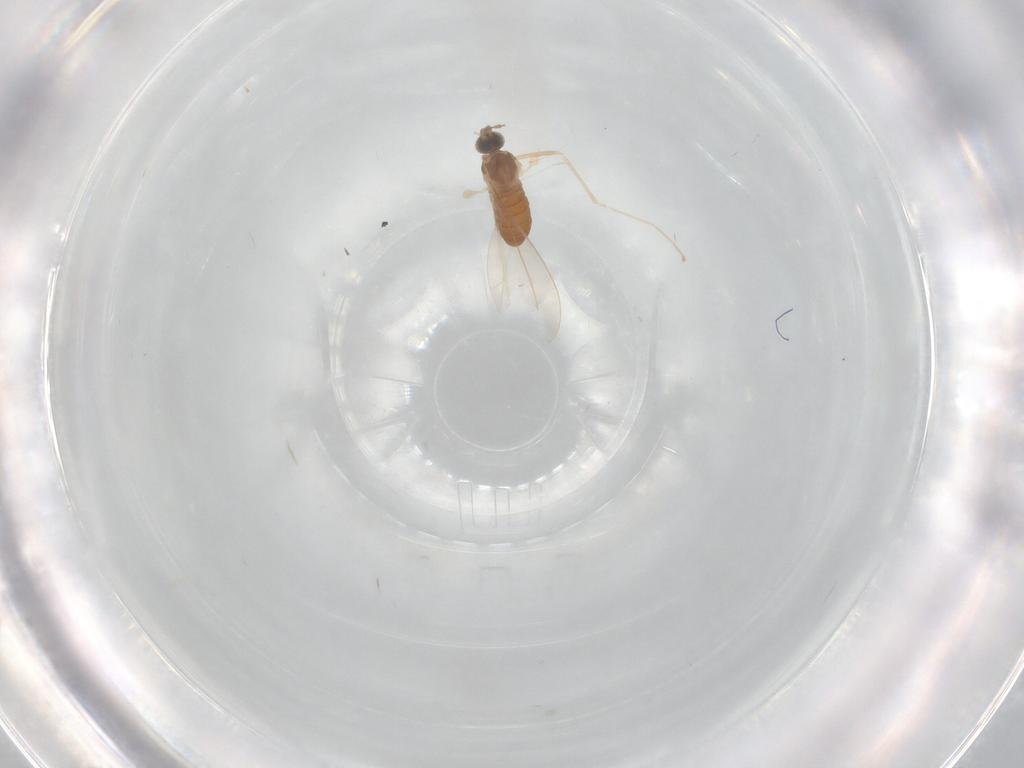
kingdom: Animalia
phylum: Arthropoda
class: Insecta
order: Diptera
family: Cecidomyiidae
